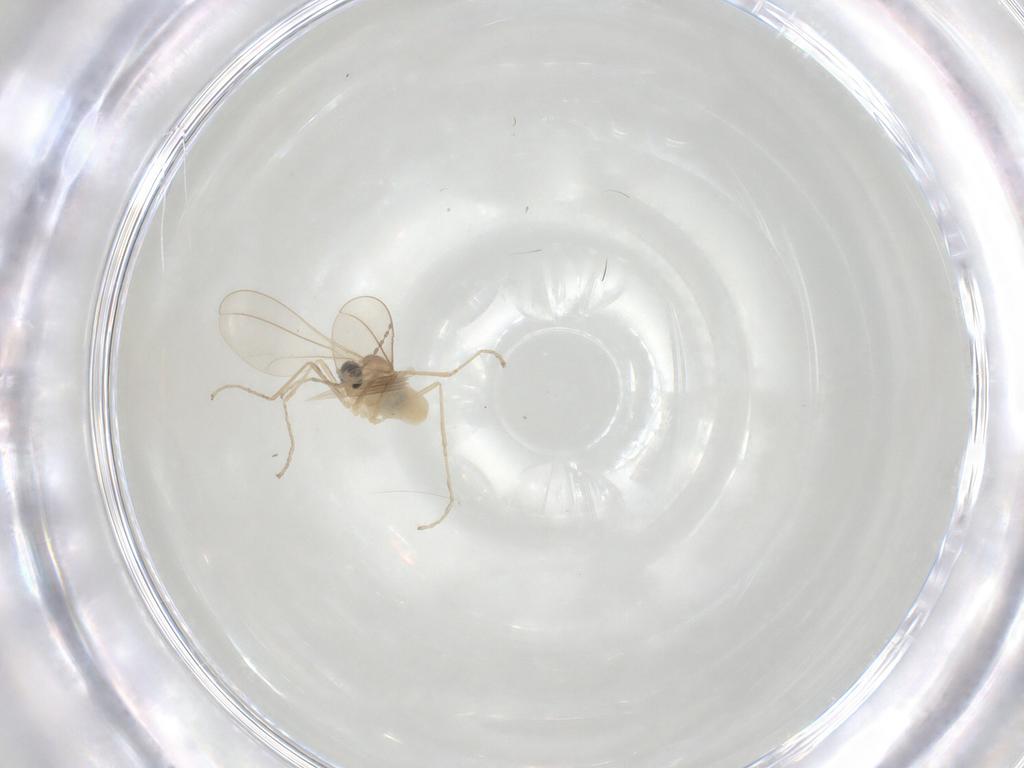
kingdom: Animalia
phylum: Arthropoda
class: Insecta
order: Diptera
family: Cecidomyiidae
